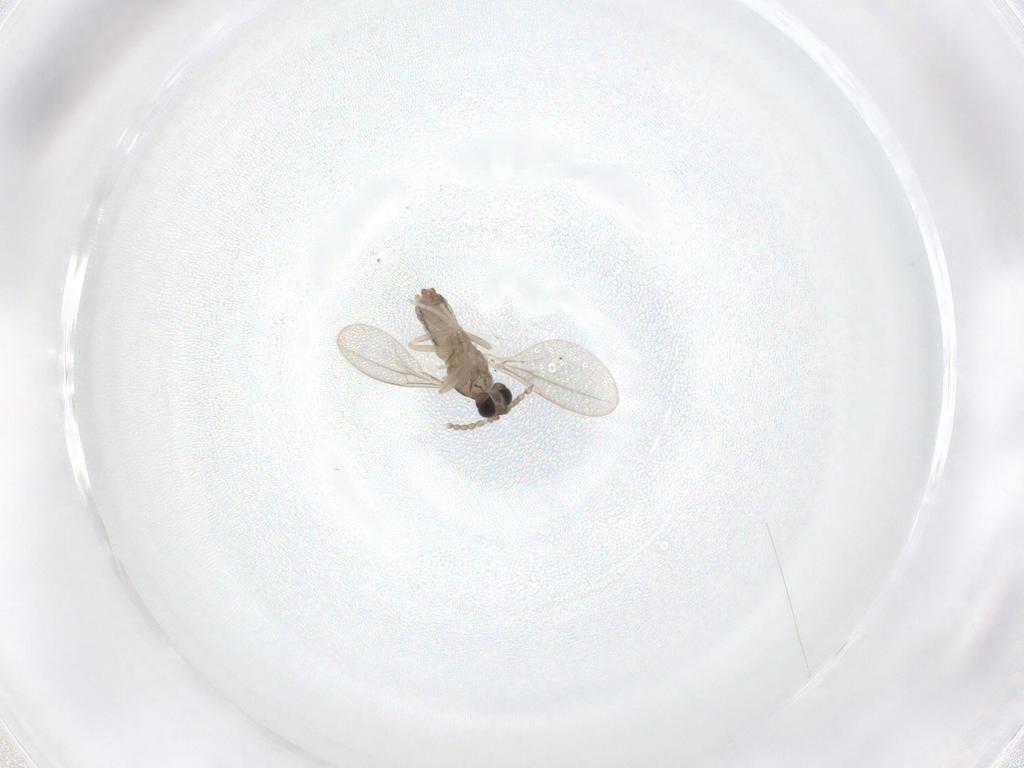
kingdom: Animalia
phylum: Arthropoda
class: Insecta
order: Diptera
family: Cecidomyiidae
